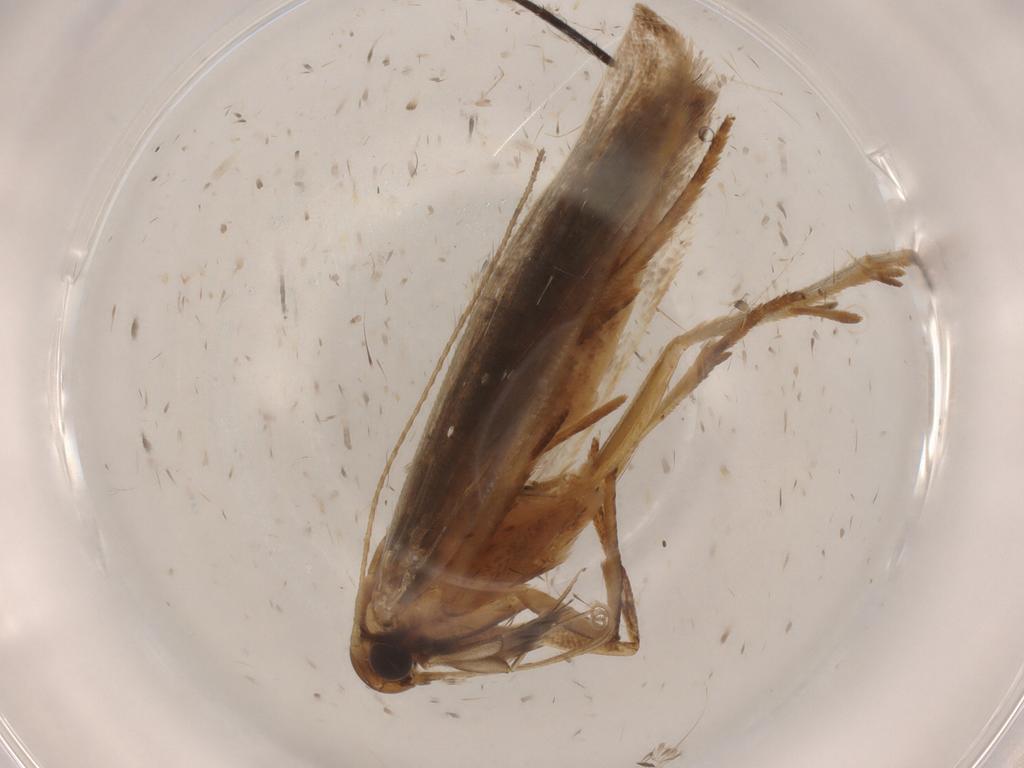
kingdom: Animalia
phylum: Arthropoda
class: Insecta
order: Lepidoptera
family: Gelechiidae
